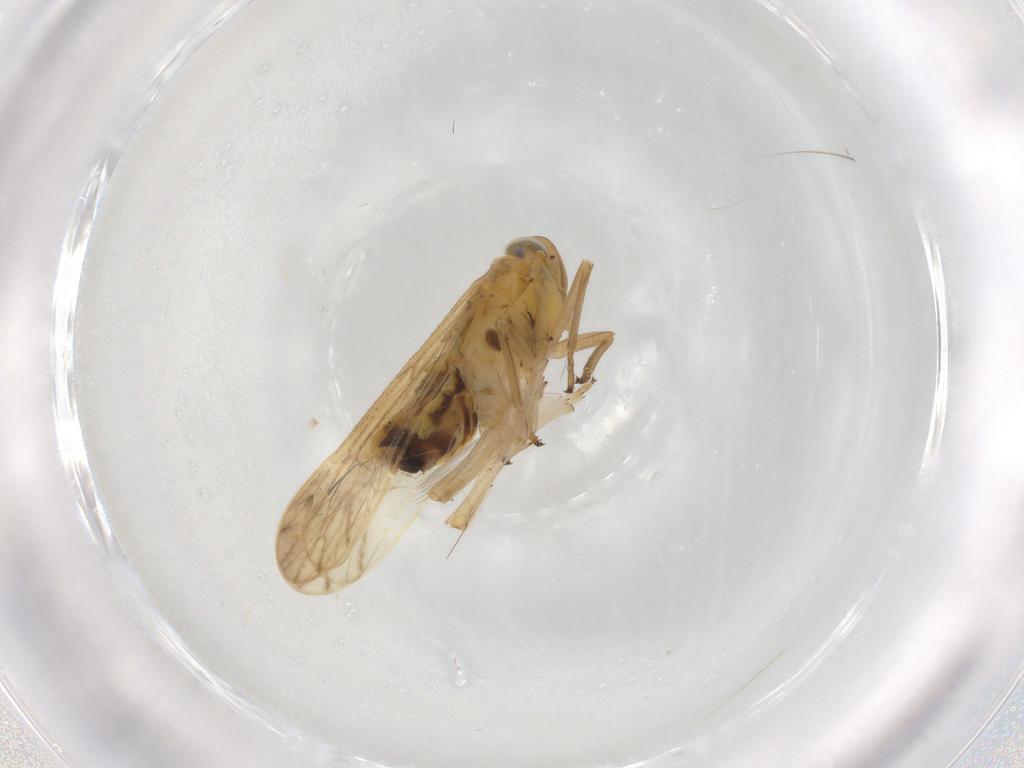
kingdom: Animalia
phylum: Arthropoda
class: Insecta
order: Hemiptera
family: Delphacidae
